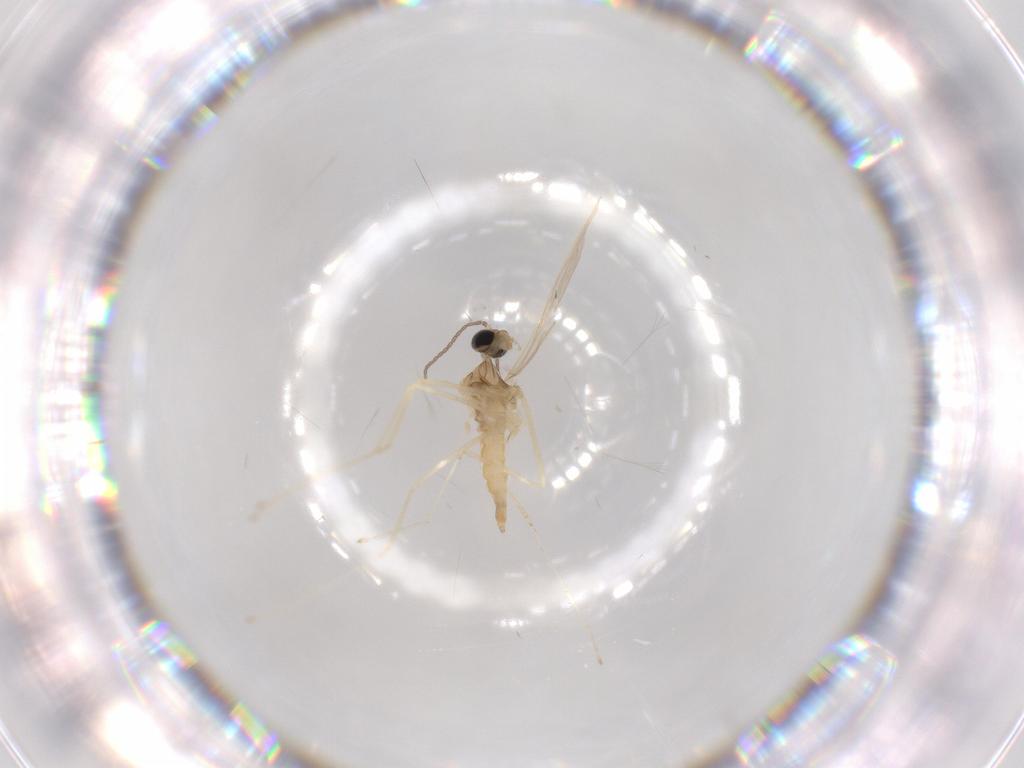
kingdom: Animalia
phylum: Arthropoda
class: Insecta
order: Diptera
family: Cecidomyiidae
